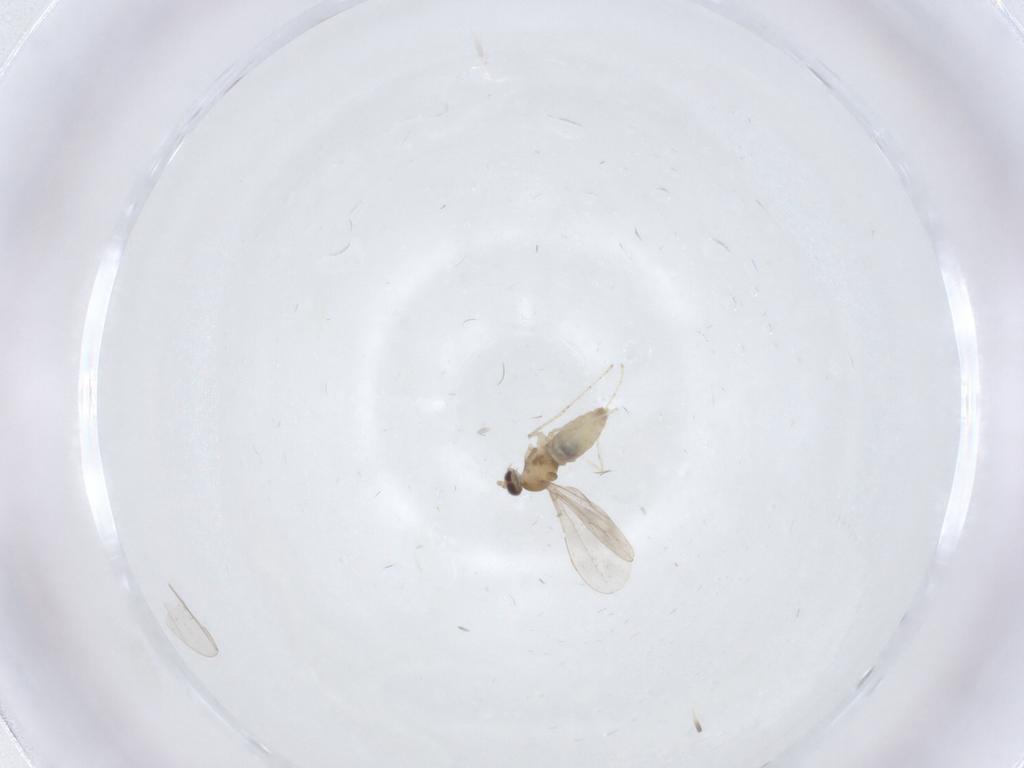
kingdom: Animalia
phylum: Arthropoda
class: Insecta
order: Diptera
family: Cecidomyiidae
